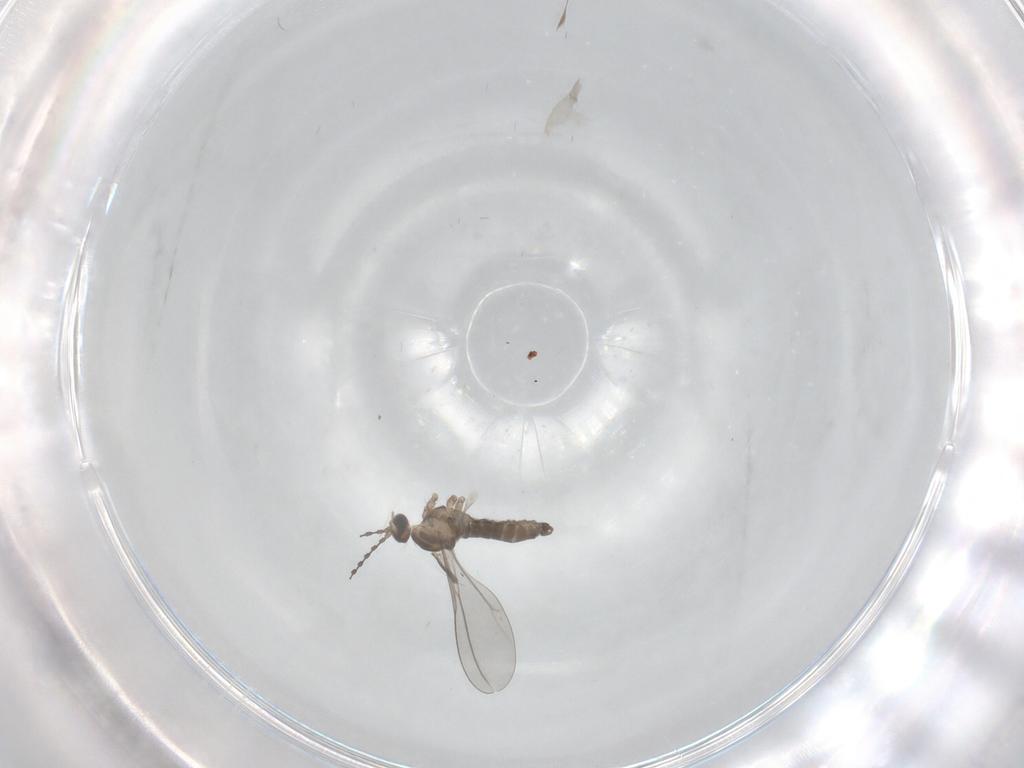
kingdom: Animalia
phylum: Arthropoda
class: Insecta
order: Diptera
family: Cecidomyiidae
